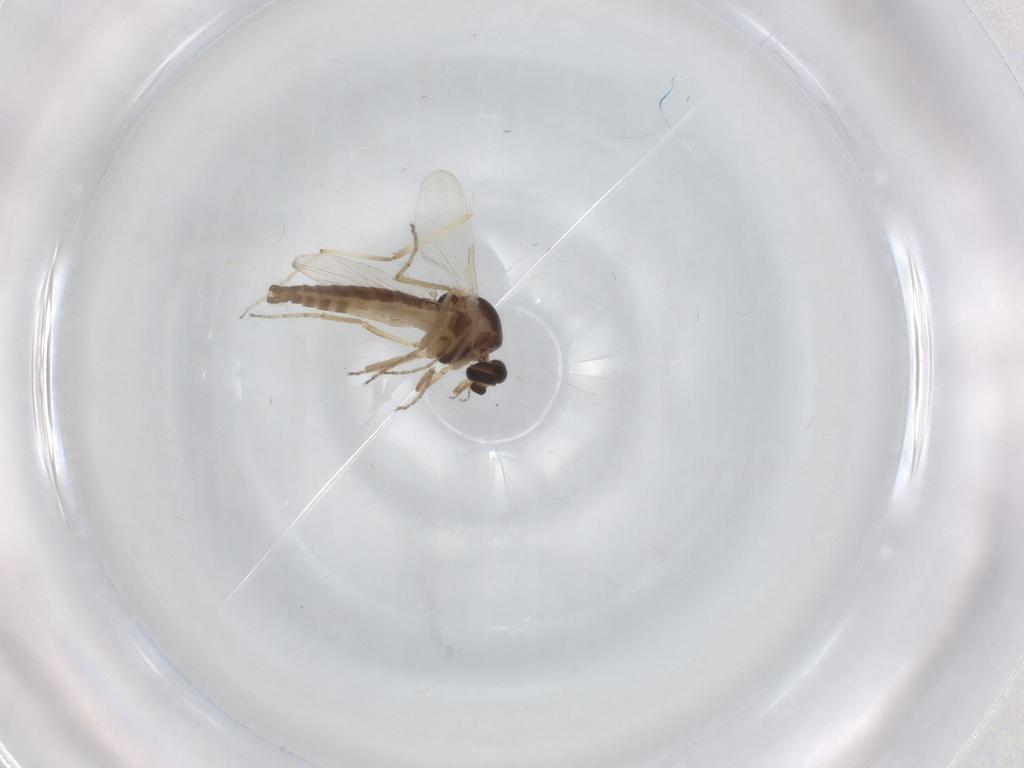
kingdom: Animalia
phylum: Arthropoda
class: Insecta
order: Diptera
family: Ceratopogonidae
